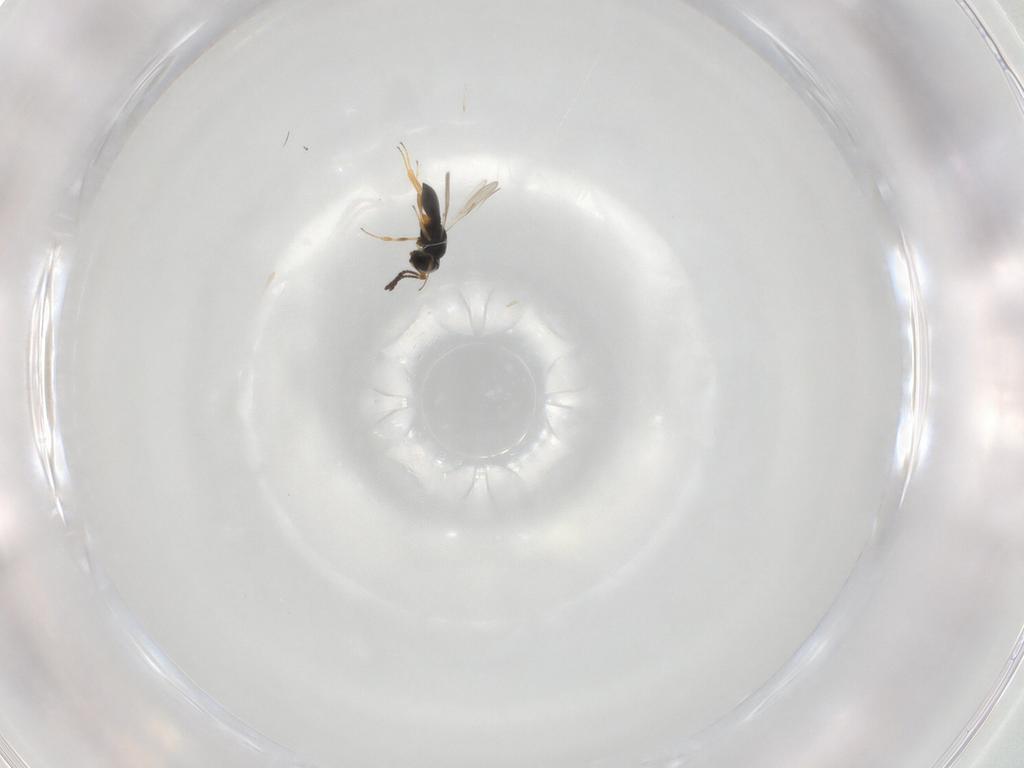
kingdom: Animalia
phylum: Arthropoda
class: Insecta
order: Hymenoptera
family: Scelionidae
